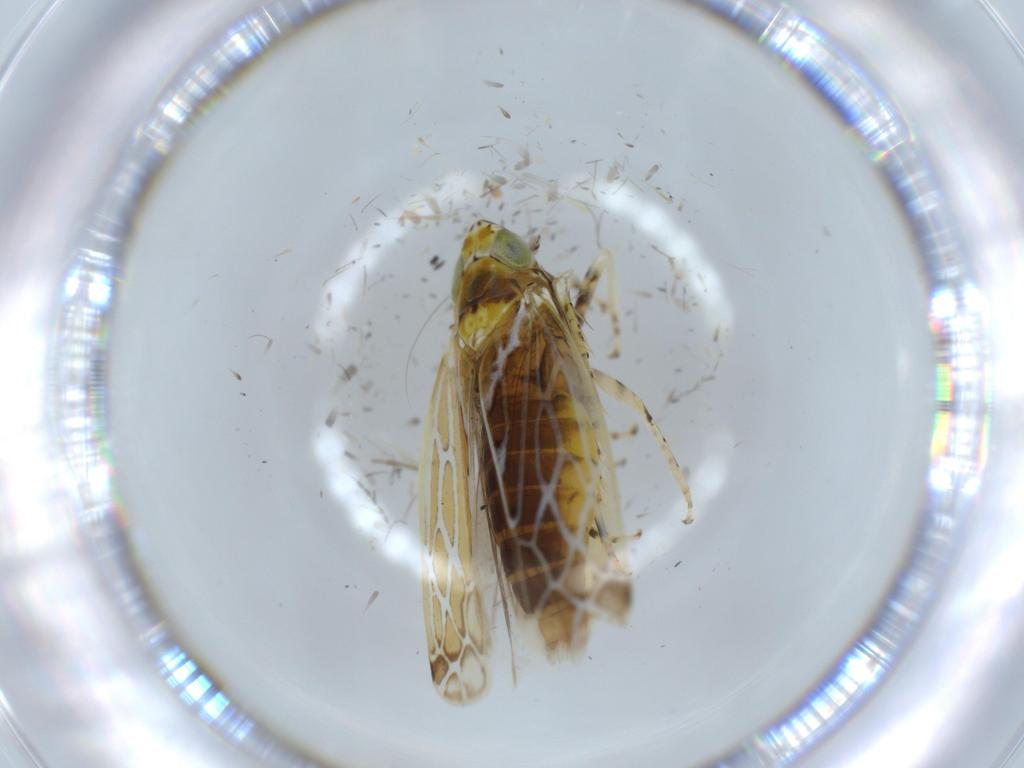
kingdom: Animalia
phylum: Arthropoda
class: Insecta
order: Hemiptera
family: Cicadellidae
